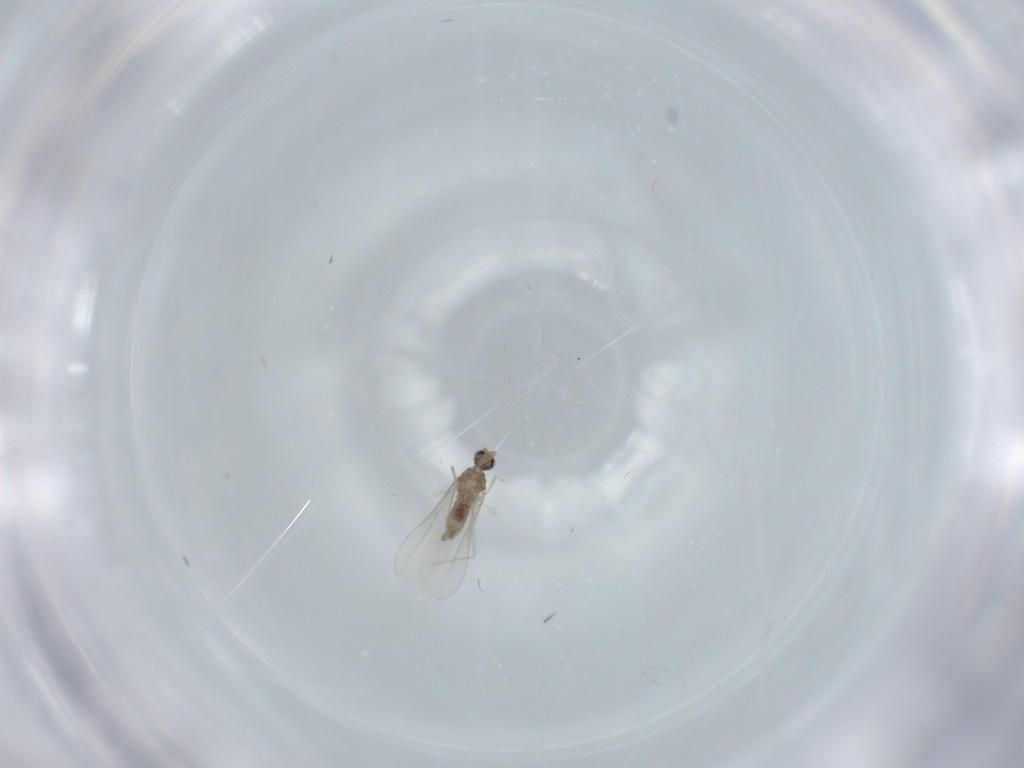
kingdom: Animalia
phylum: Arthropoda
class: Insecta
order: Diptera
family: Cecidomyiidae
